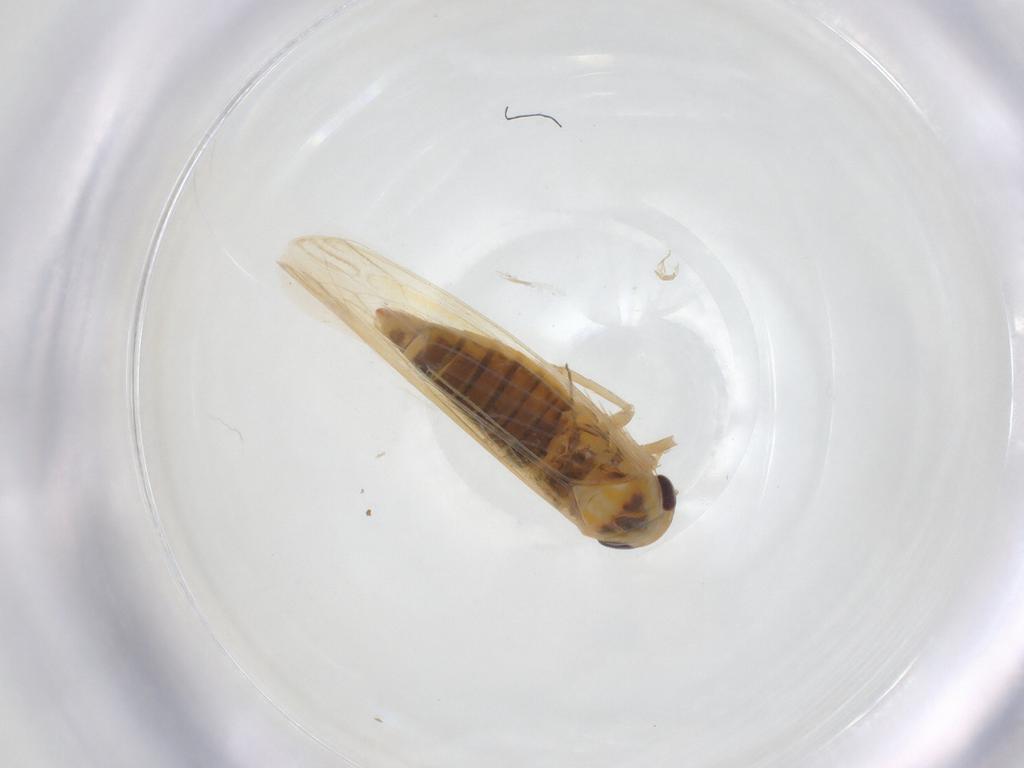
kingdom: Animalia
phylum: Arthropoda
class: Insecta
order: Hemiptera
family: Cicadellidae
